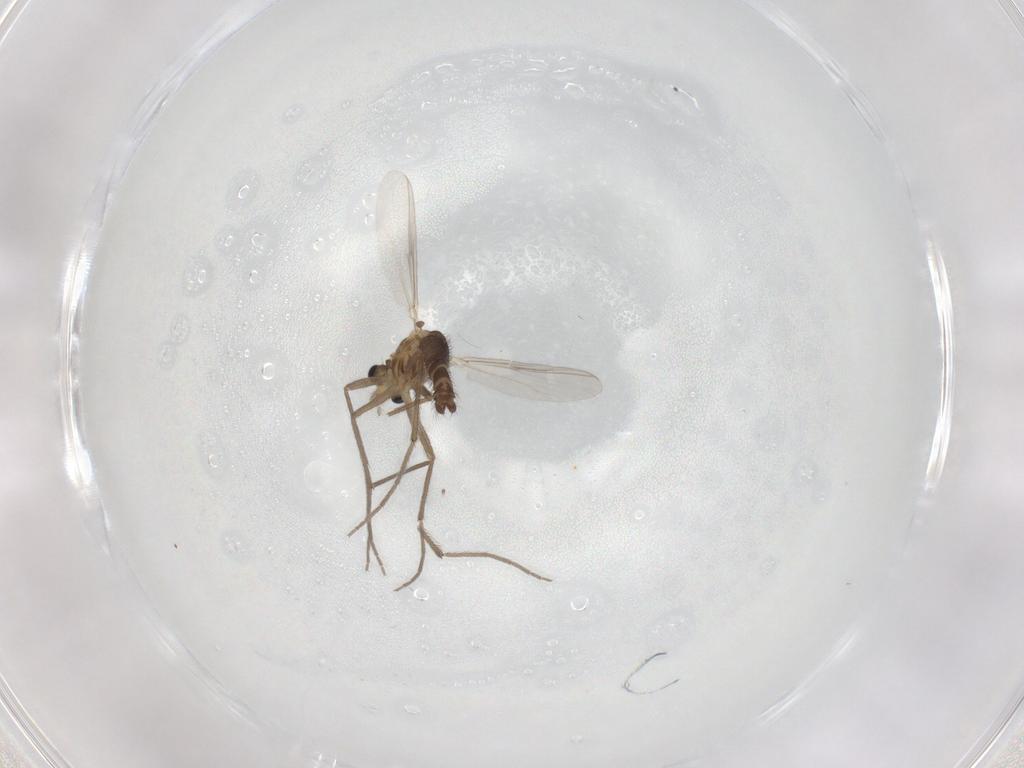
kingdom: Animalia
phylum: Arthropoda
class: Insecta
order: Diptera
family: Chironomidae
